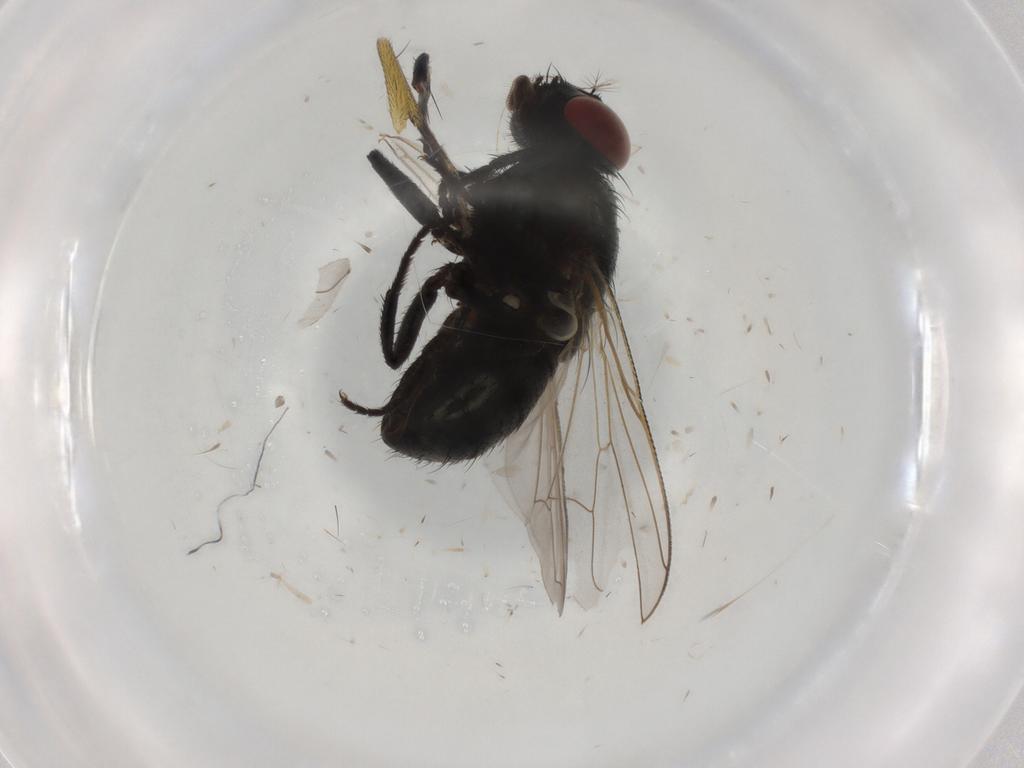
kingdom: Animalia
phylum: Arthropoda
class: Insecta
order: Diptera
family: Muscidae
